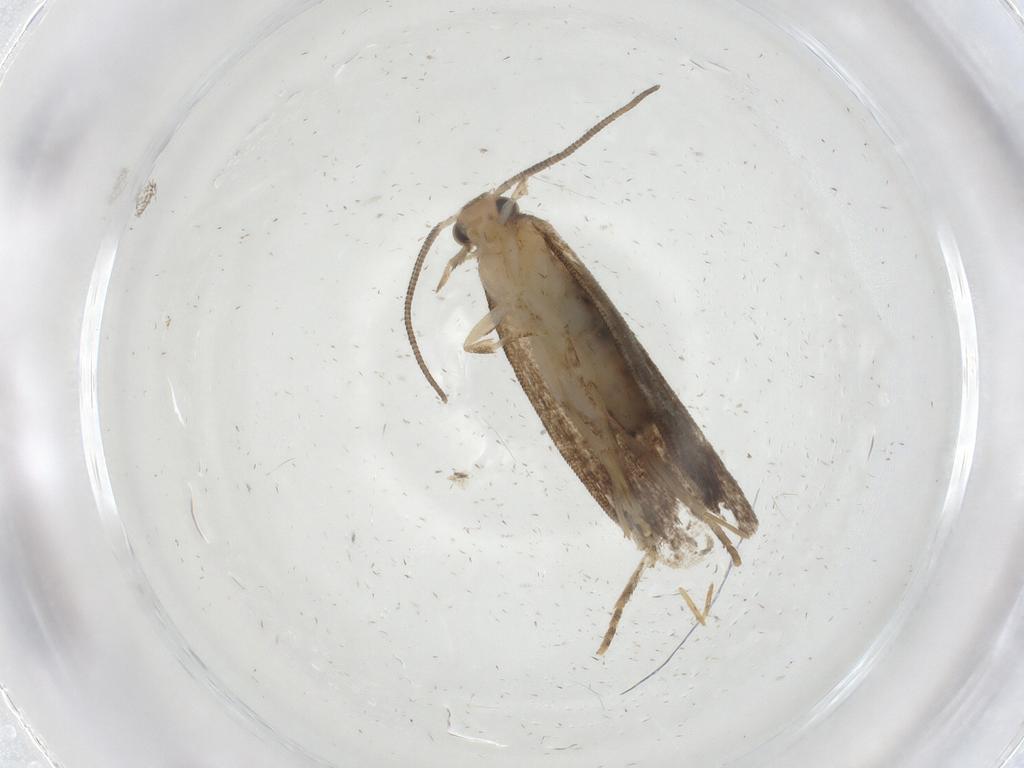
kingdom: Animalia
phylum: Arthropoda
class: Insecta
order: Lepidoptera
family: Dryadaulidae
